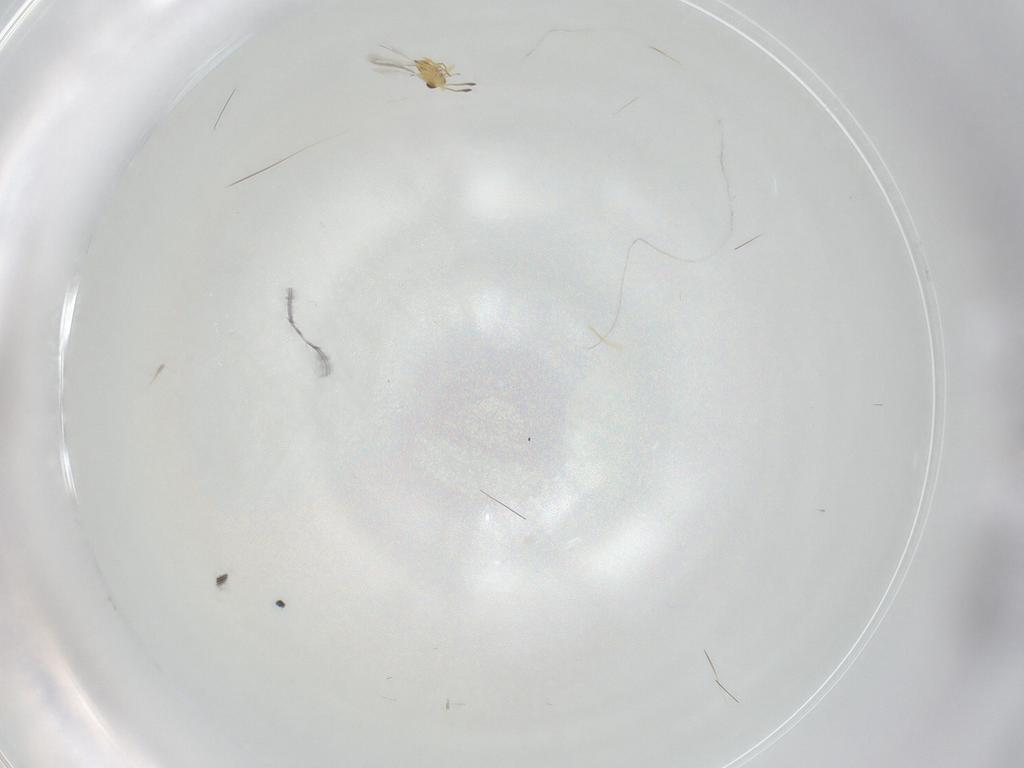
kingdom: Animalia
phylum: Arthropoda
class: Insecta
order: Hymenoptera
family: Mymaridae
